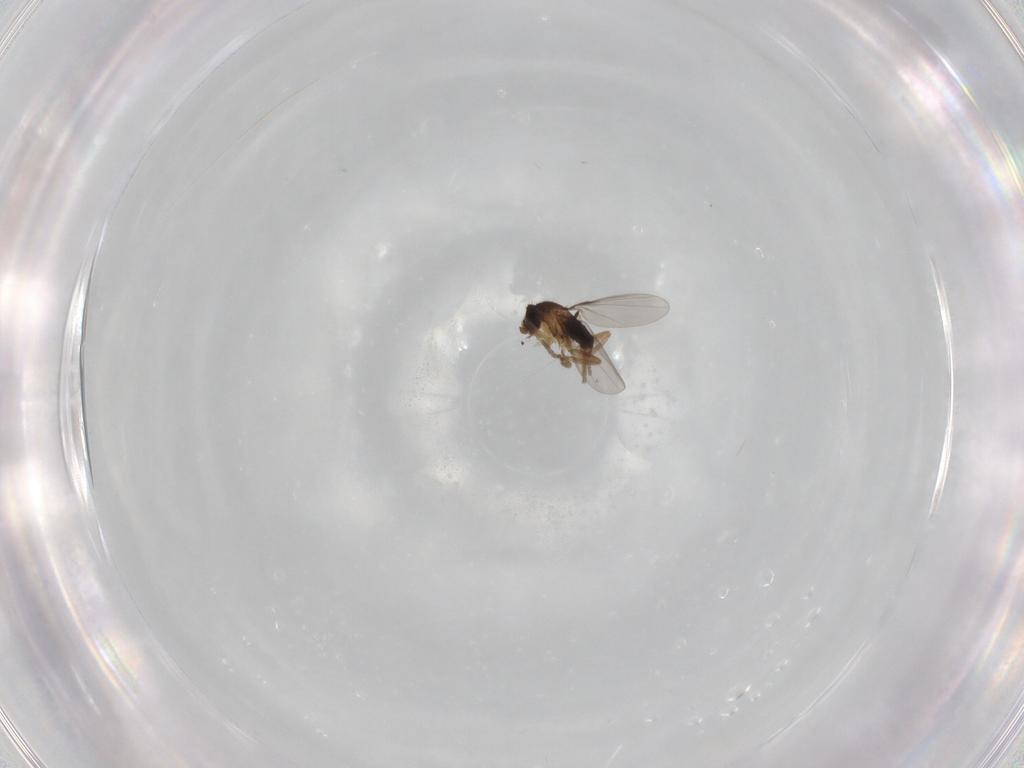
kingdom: Animalia
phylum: Arthropoda
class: Insecta
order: Diptera
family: Phoridae
